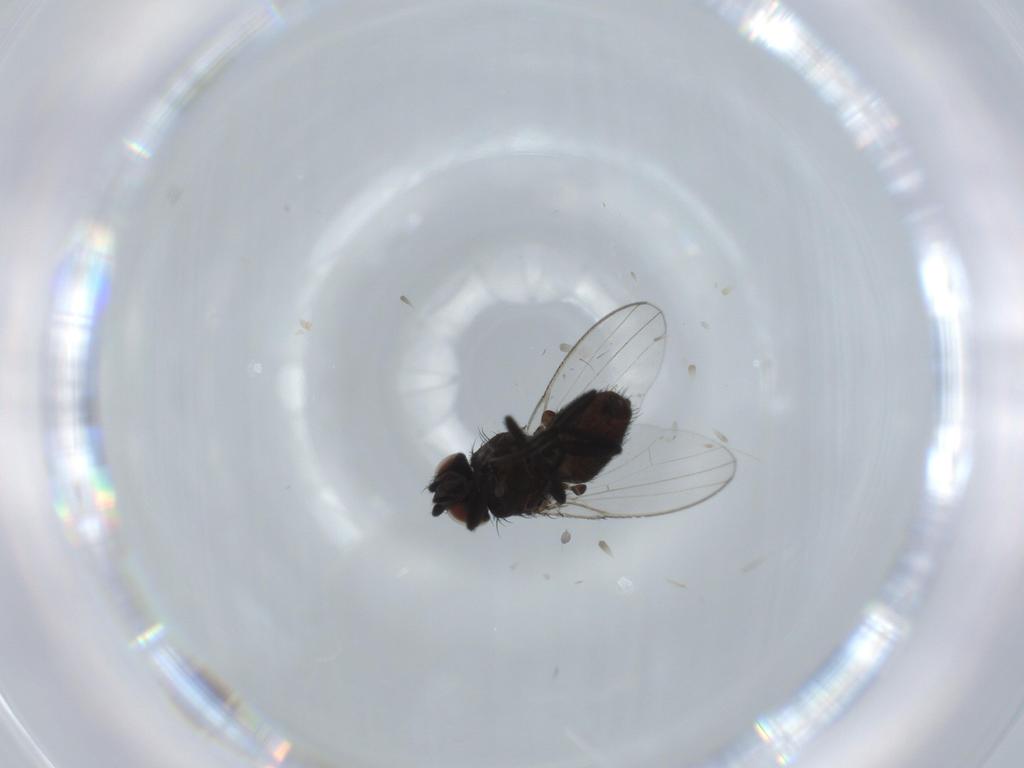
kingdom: Animalia
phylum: Arthropoda
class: Insecta
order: Diptera
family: Milichiidae
